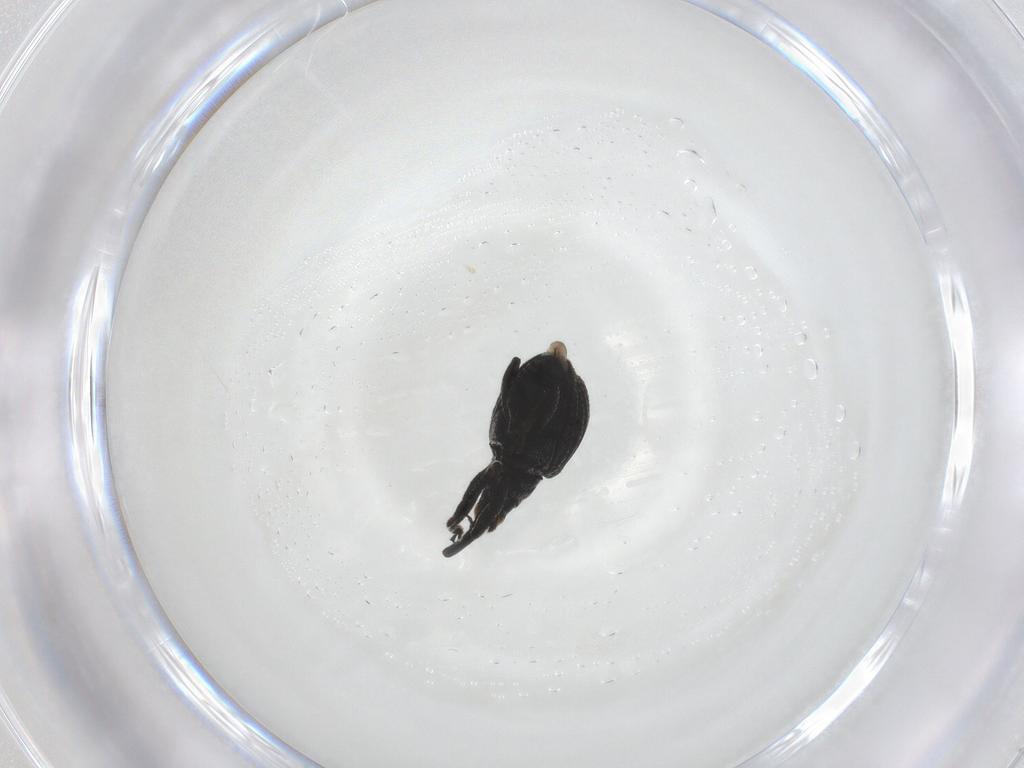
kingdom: Animalia
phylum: Arthropoda
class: Insecta
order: Coleoptera
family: Brentidae
